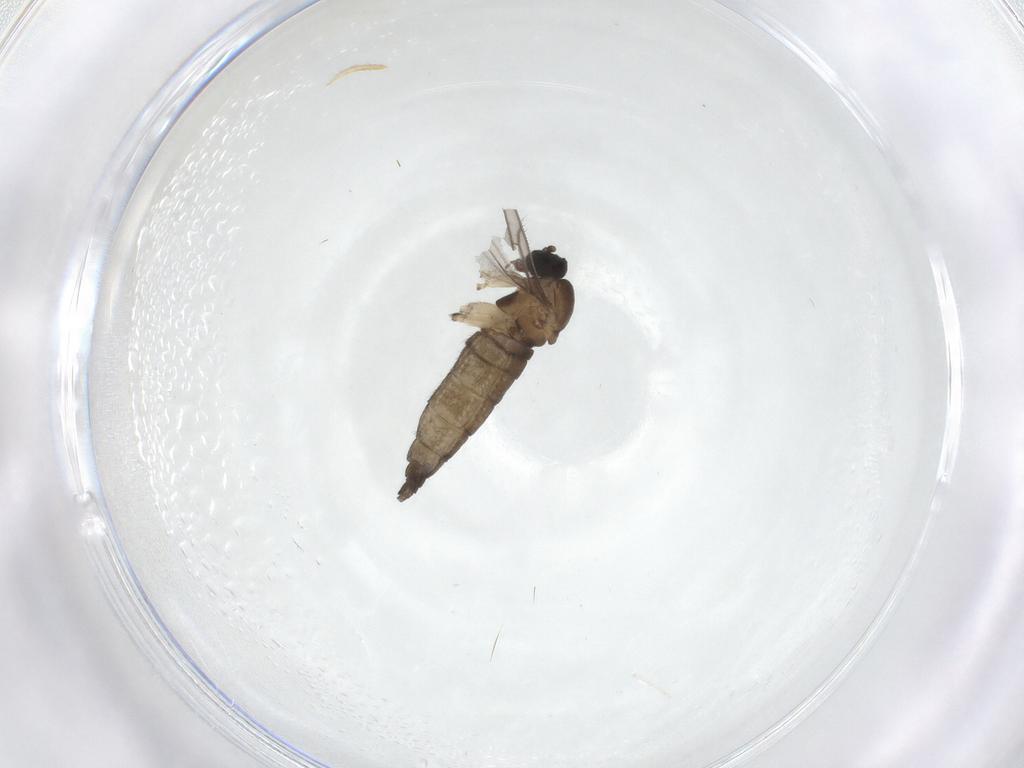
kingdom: Animalia
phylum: Arthropoda
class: Insecta
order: Diptera
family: Sciaridae
